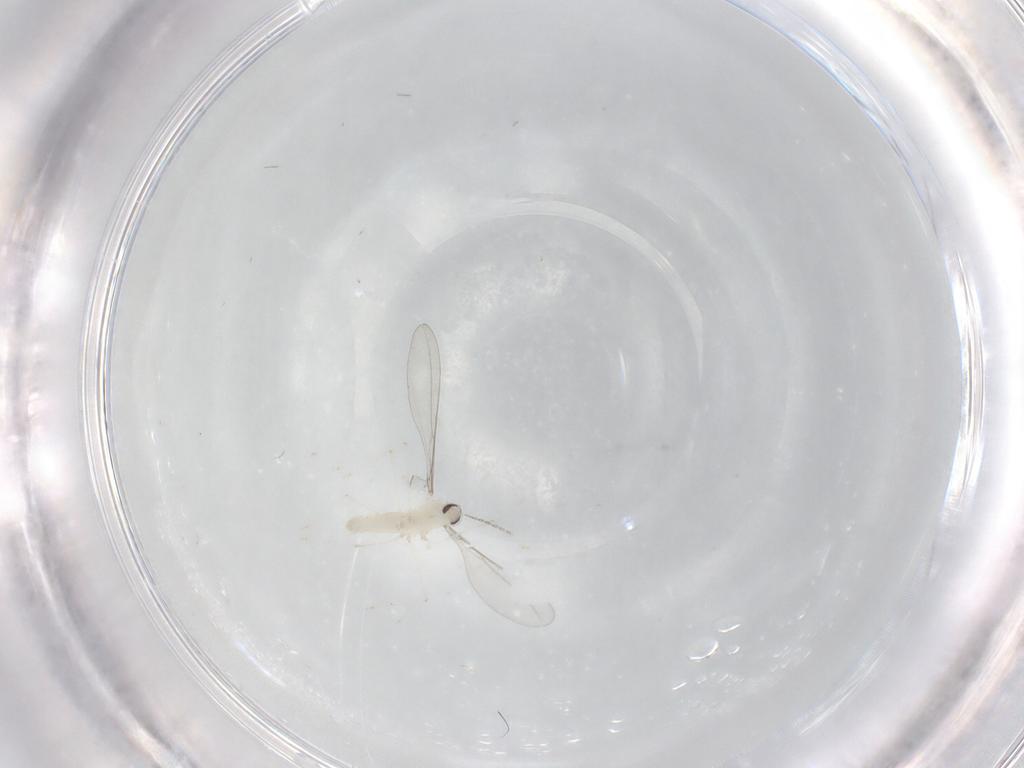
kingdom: Animalia
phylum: Arthropoda
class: Insecta
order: Diptera
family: Cecidomyiidae
